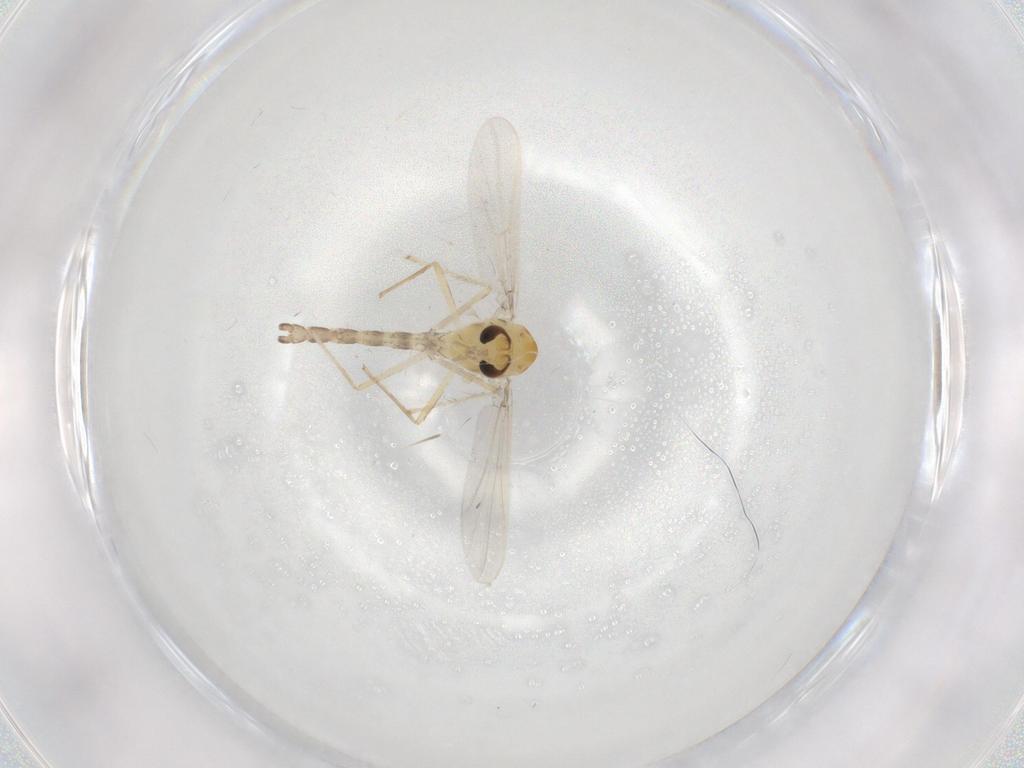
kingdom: Animalia
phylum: Arthropoda
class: Insecta
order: Diptera
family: Chironomidae
